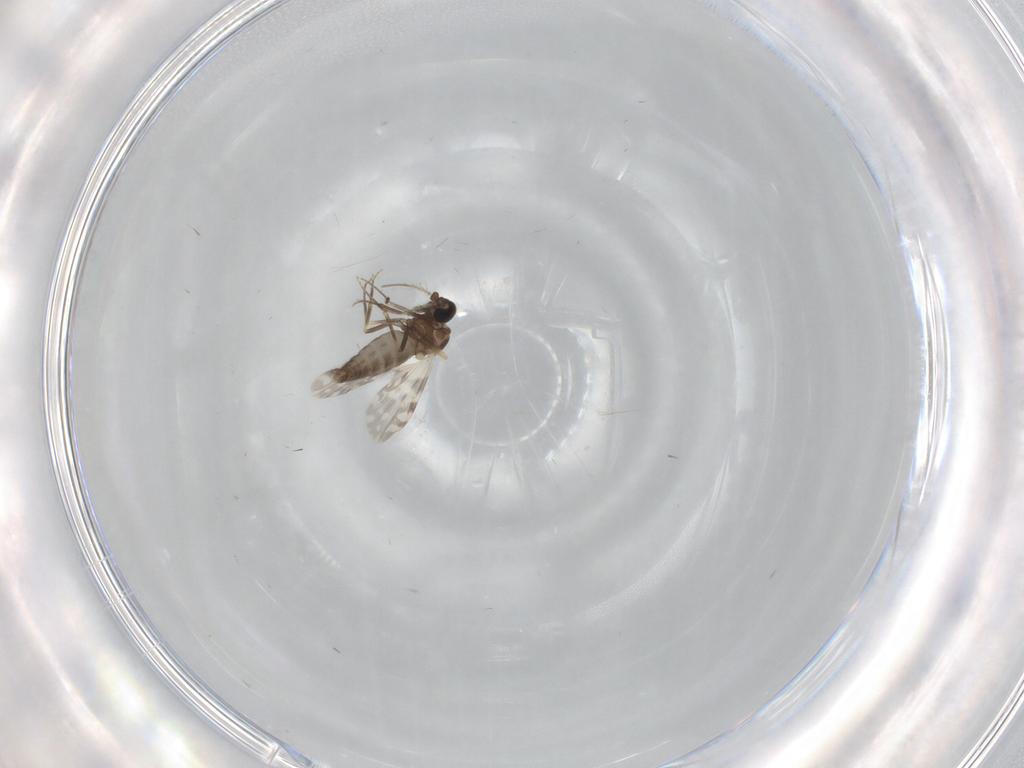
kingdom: Animalia
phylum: Arthropoda
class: Insecta
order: Diptera
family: Ceratopogonidae
